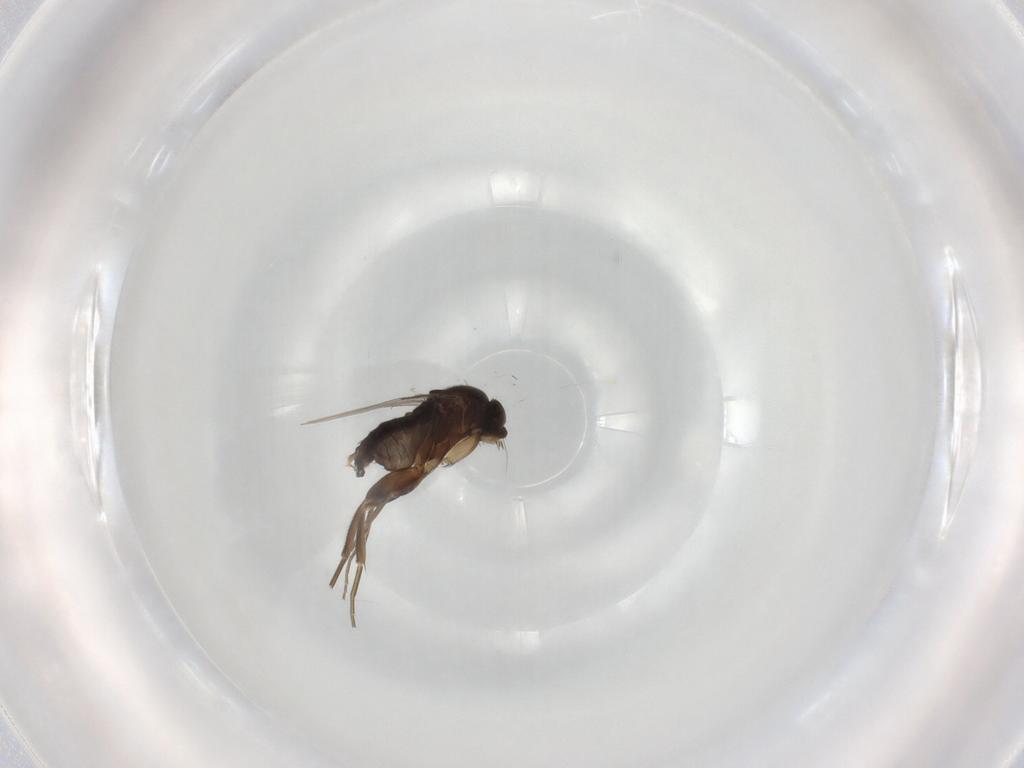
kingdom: Animalia
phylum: Arthropoda
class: Insecta
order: Diptera
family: Phoridae
